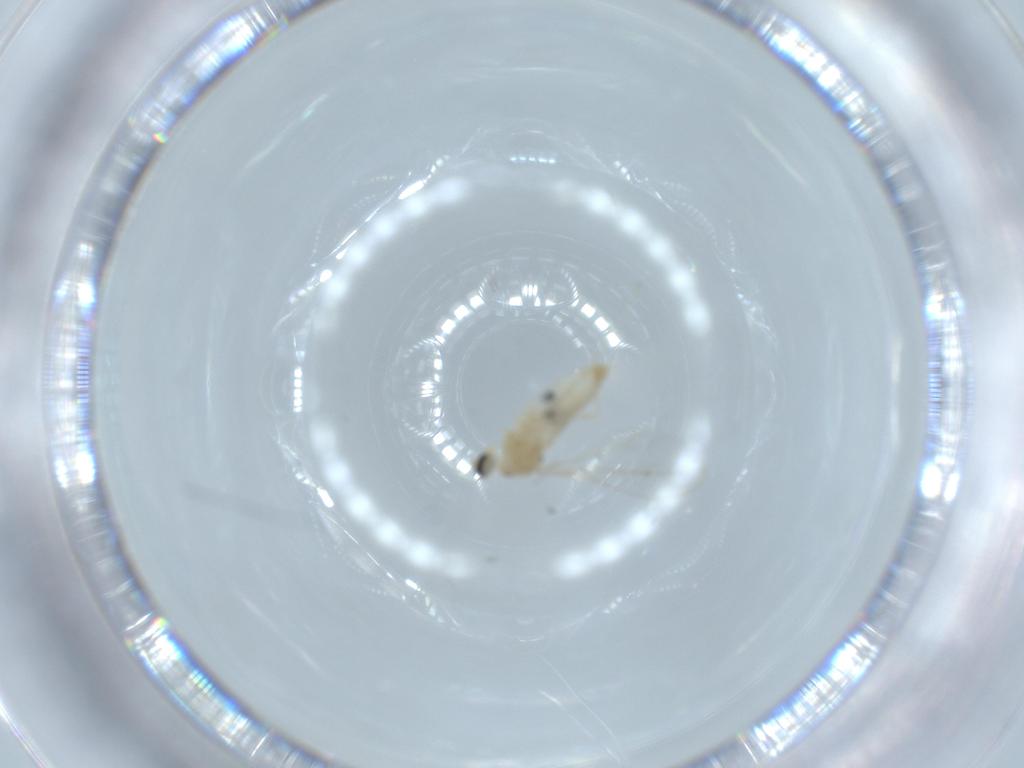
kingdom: Animalia
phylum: Arthropoda
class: Insecta
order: Diptera
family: Cecidomyiidae
